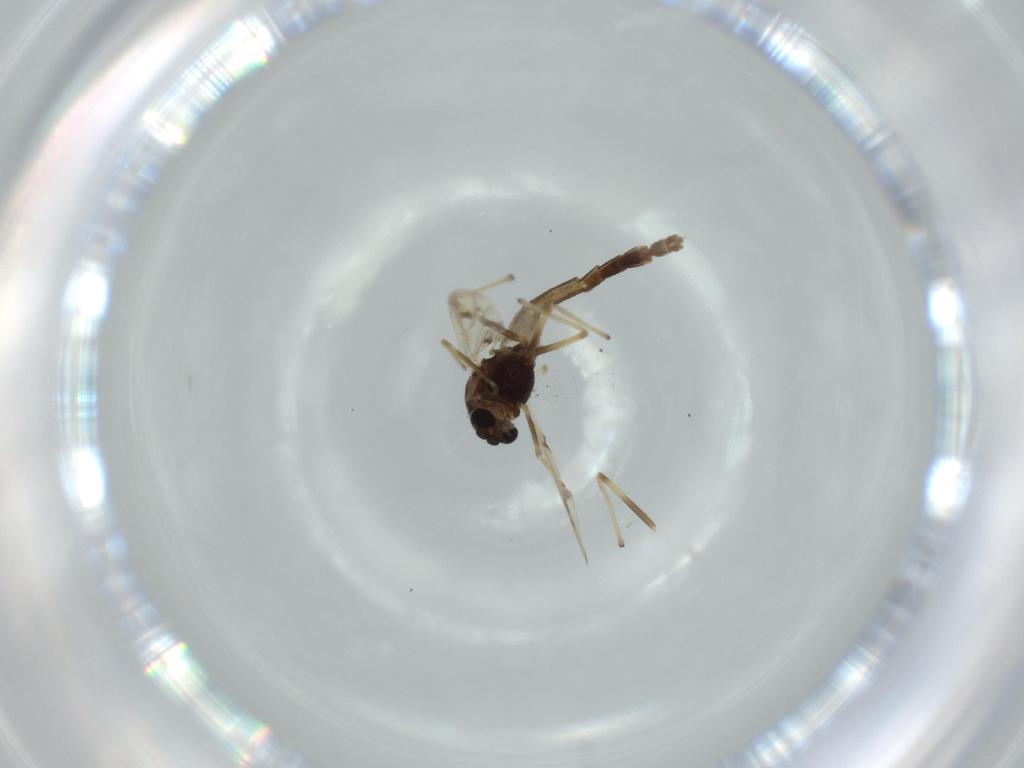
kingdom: Animalia
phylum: Arthropoda
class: Insecta
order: Diptera
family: Chironomidae
